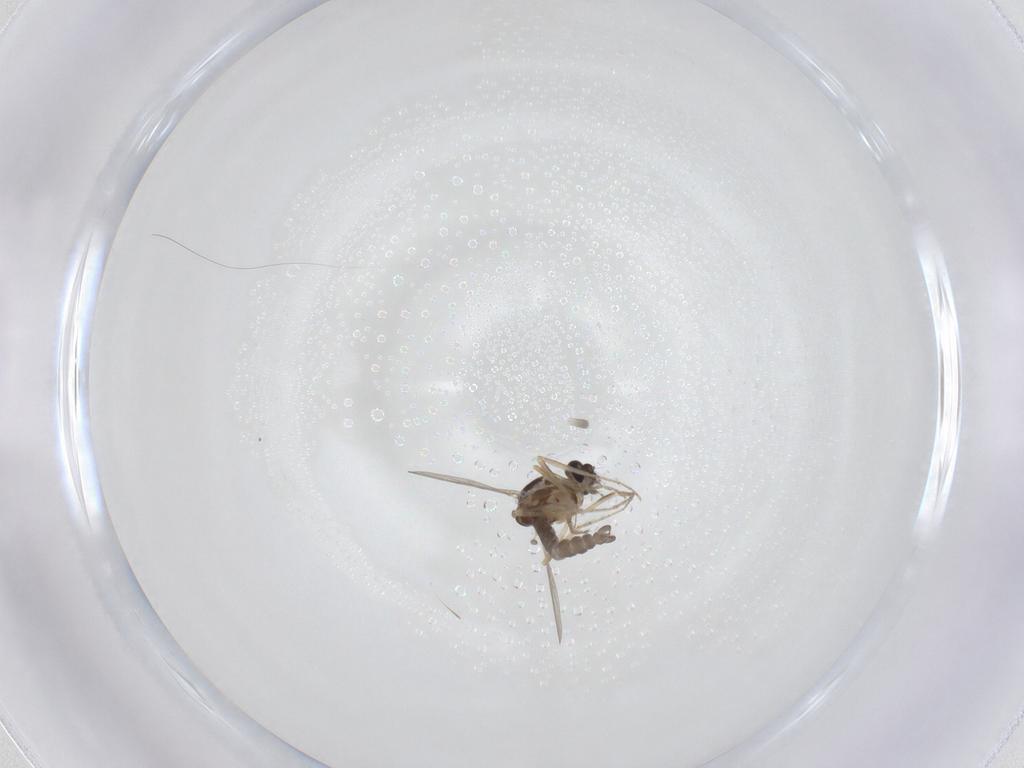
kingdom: Animalia
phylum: Arthropoda
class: Insecta
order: Diptera
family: Ceratopogonidae
